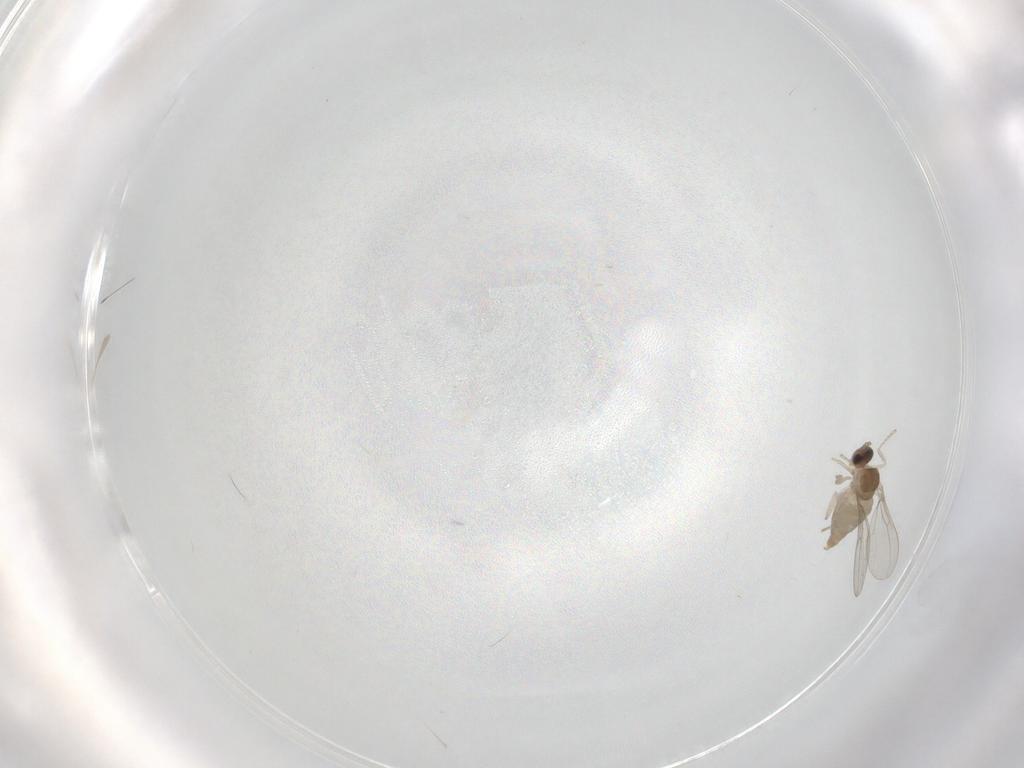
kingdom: Animalia
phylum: Arthropoda
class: Insecta
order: Diptera
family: Cecidomyiidae
